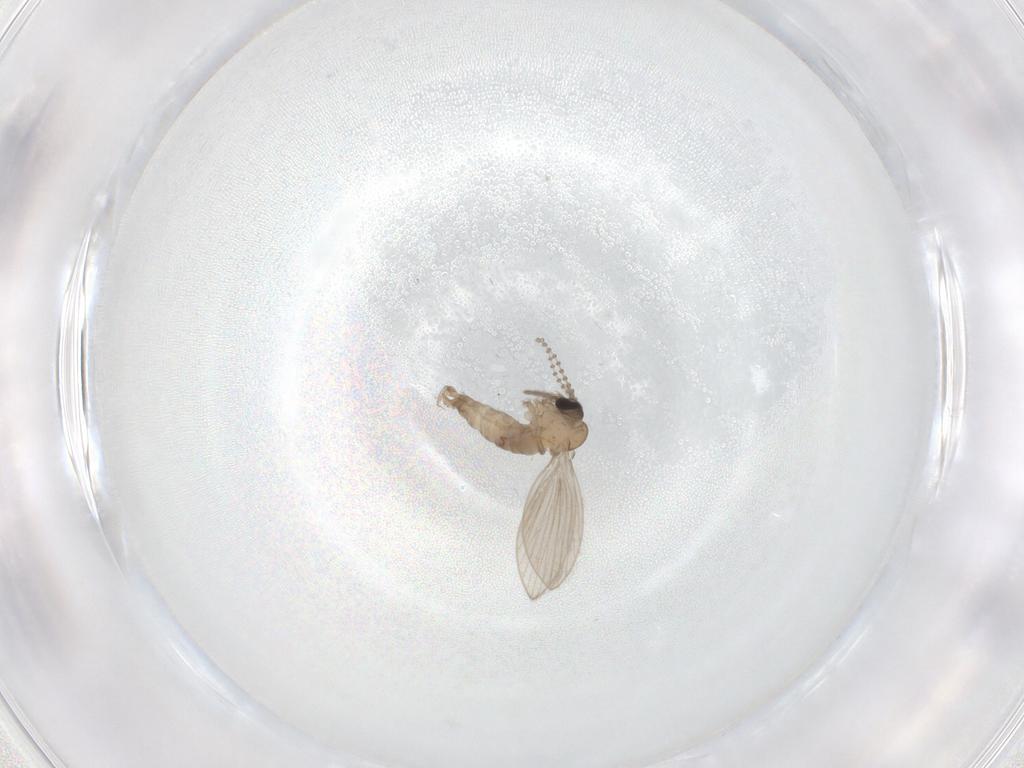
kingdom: Animalia
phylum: Arthropoda
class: Insecta
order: Diptera
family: Psychodidae
